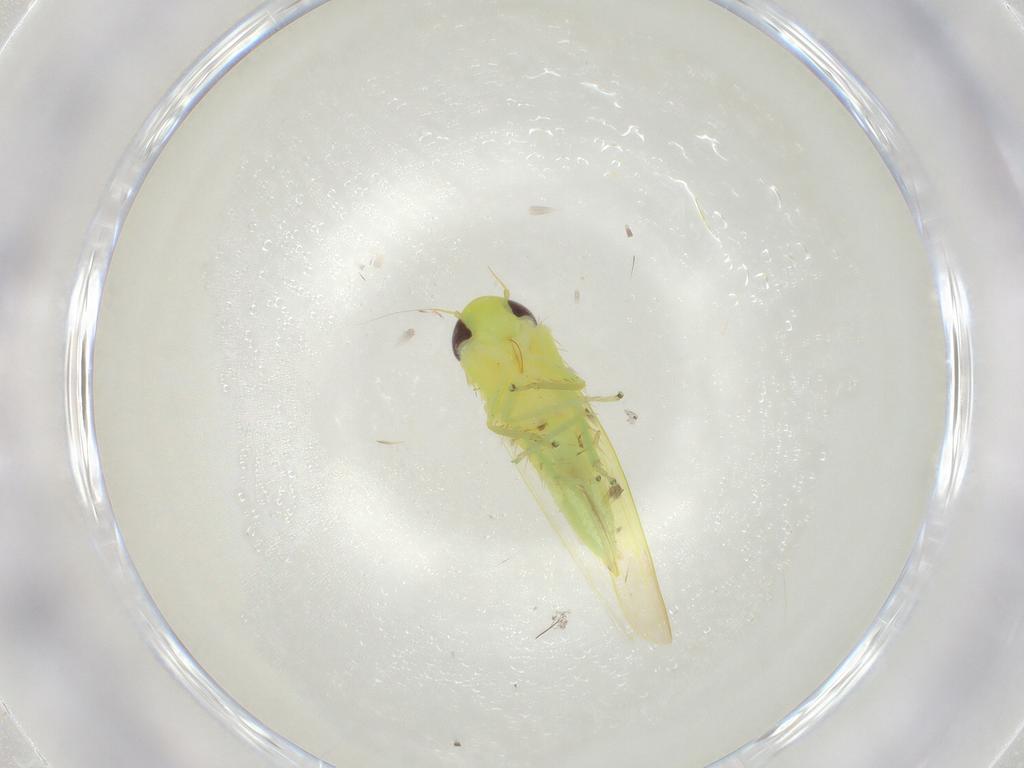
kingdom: Animalia
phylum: Arthropoda
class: Insecta
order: Hemiptera
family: Cicadellidae
